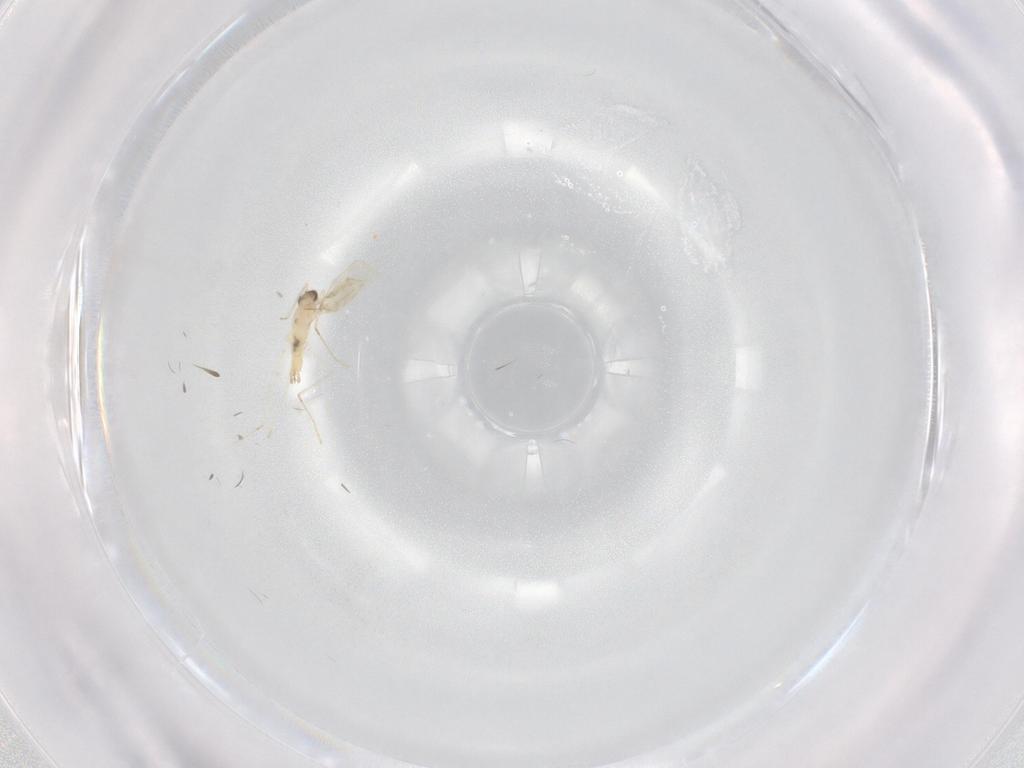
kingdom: Animalia
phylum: Arthropoda
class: Insecta
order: Diptera
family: Cecidomyiidae
